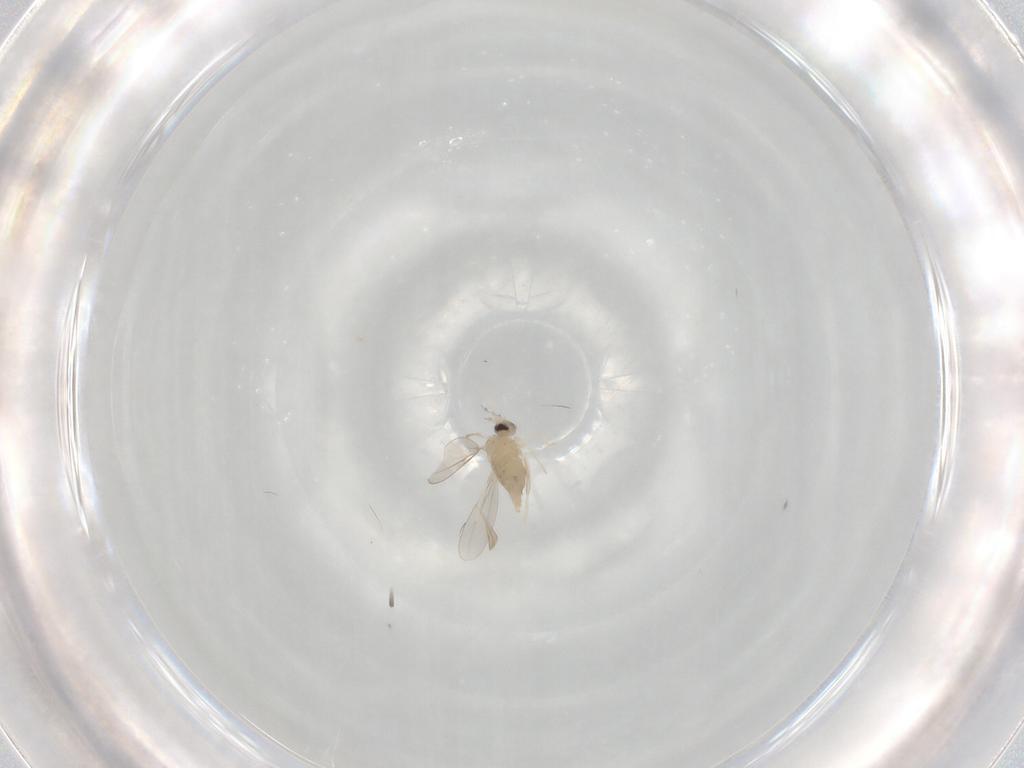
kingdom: Animalia
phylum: Arthropoda
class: Insecta
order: Diptera
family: Cecidomyiidae
